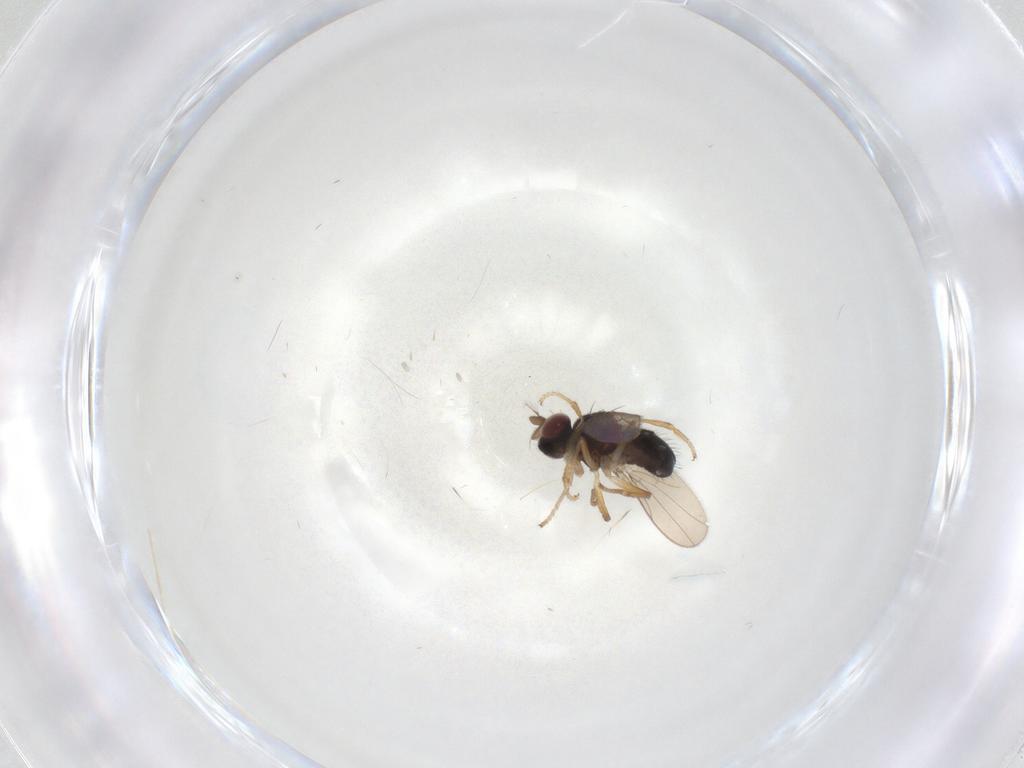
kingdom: Animalia
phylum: Arthropoda
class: Insecta
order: Diptera
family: Ephydridae
